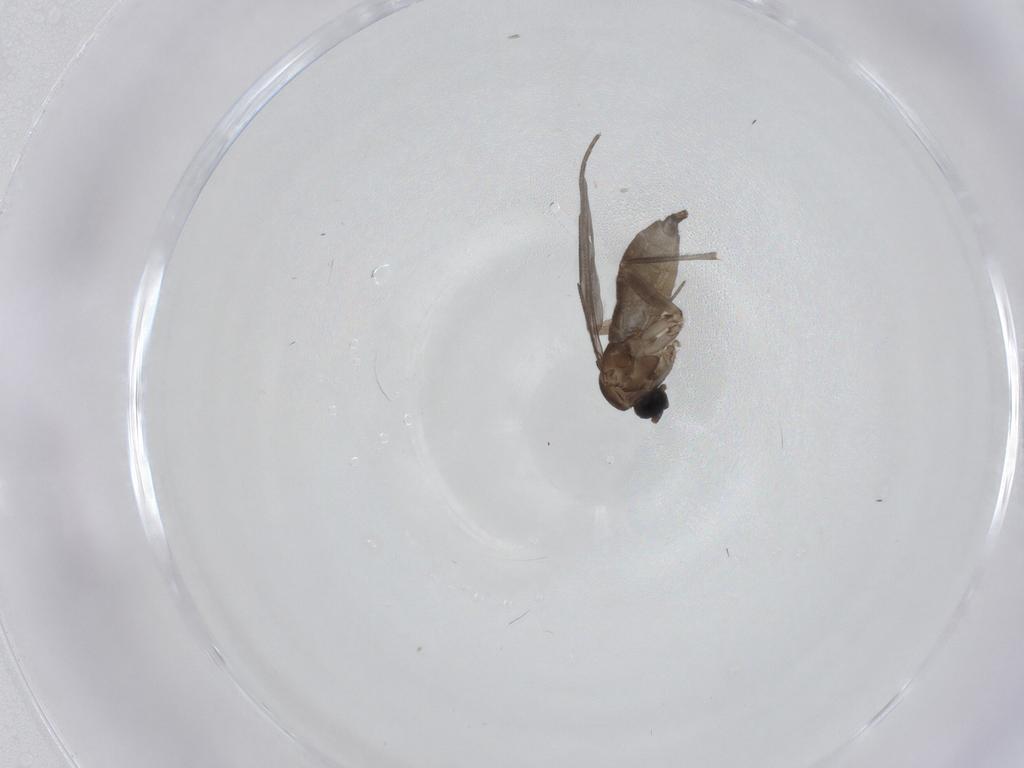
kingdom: Animalia
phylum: Arthropoda
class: Insecta
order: Diptera
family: Sciaridae
